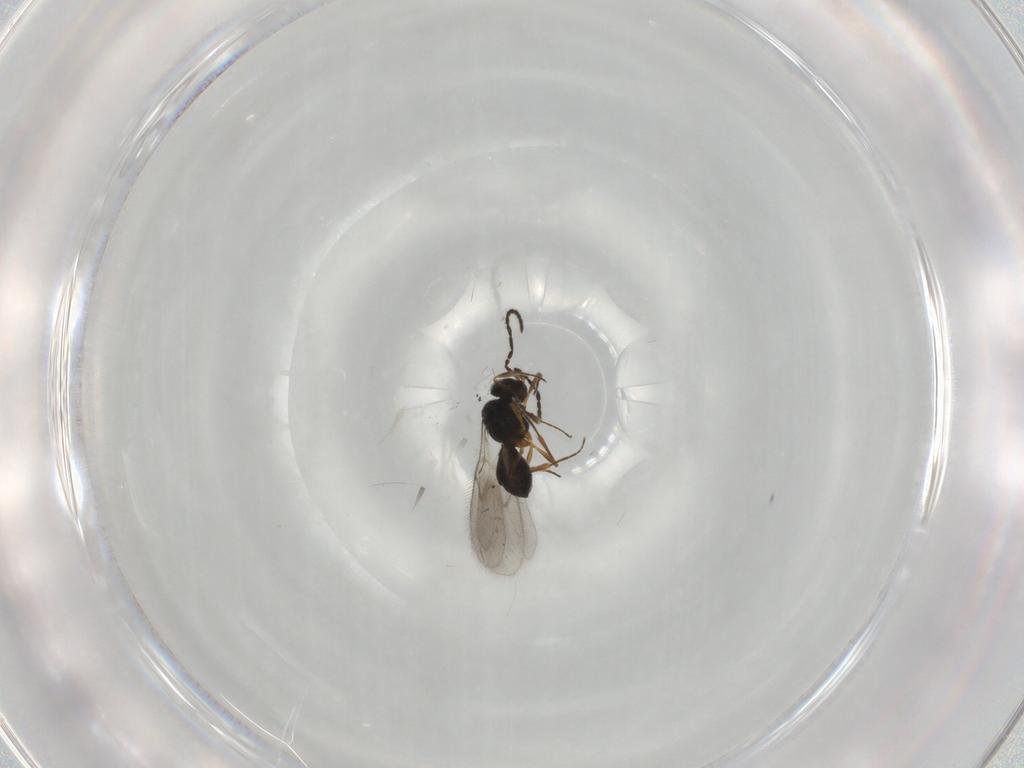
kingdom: Animalia
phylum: Arthropoda
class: Insecta
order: Hymenoptera
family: Scelionidae
